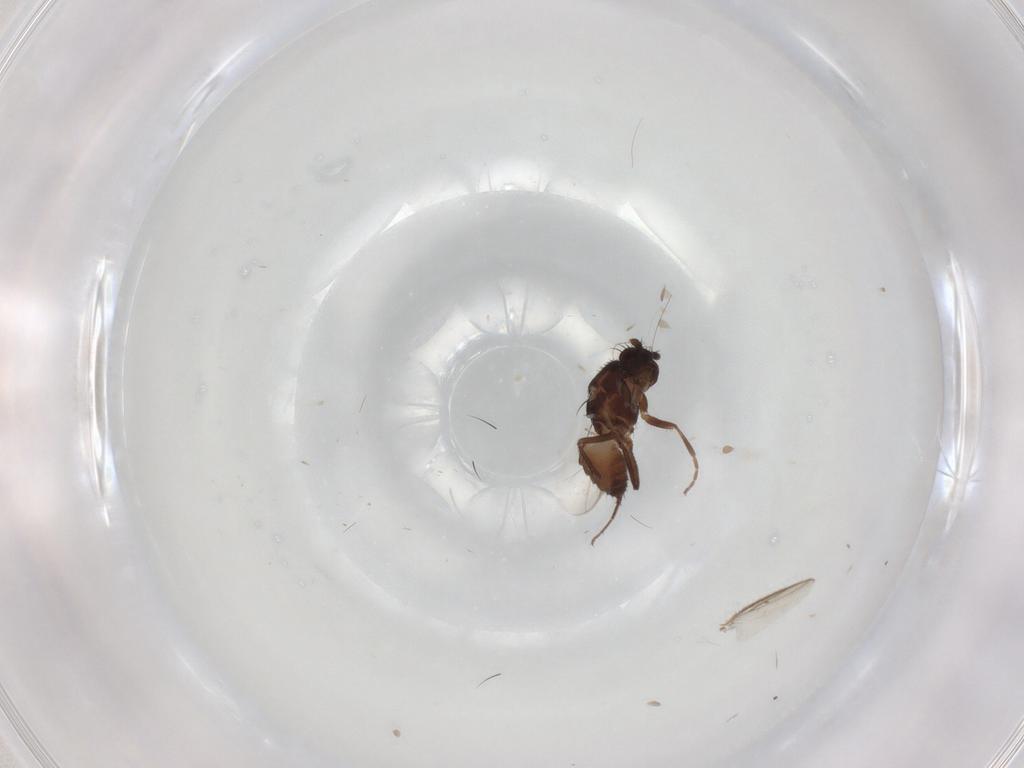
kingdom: Animalia
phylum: Arthropoda
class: Insecta
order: Diptera
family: Sphaeroceridae
